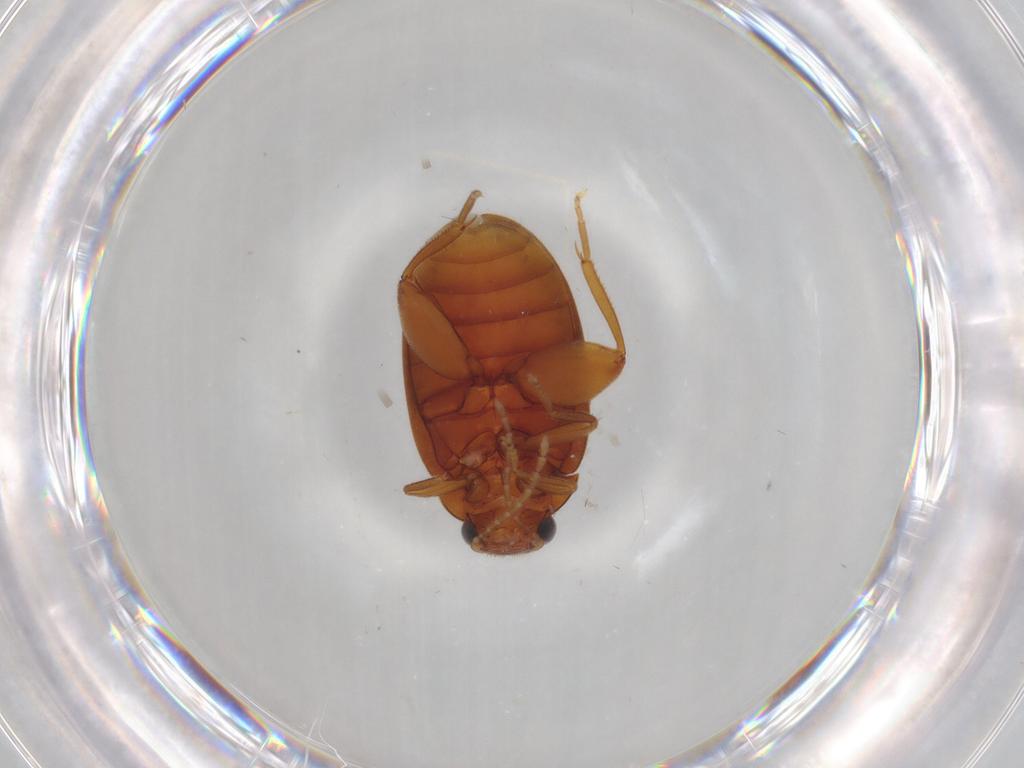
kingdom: Animalia
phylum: Arthropoda
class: Insecta
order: Coleoptera
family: Scirtidae
